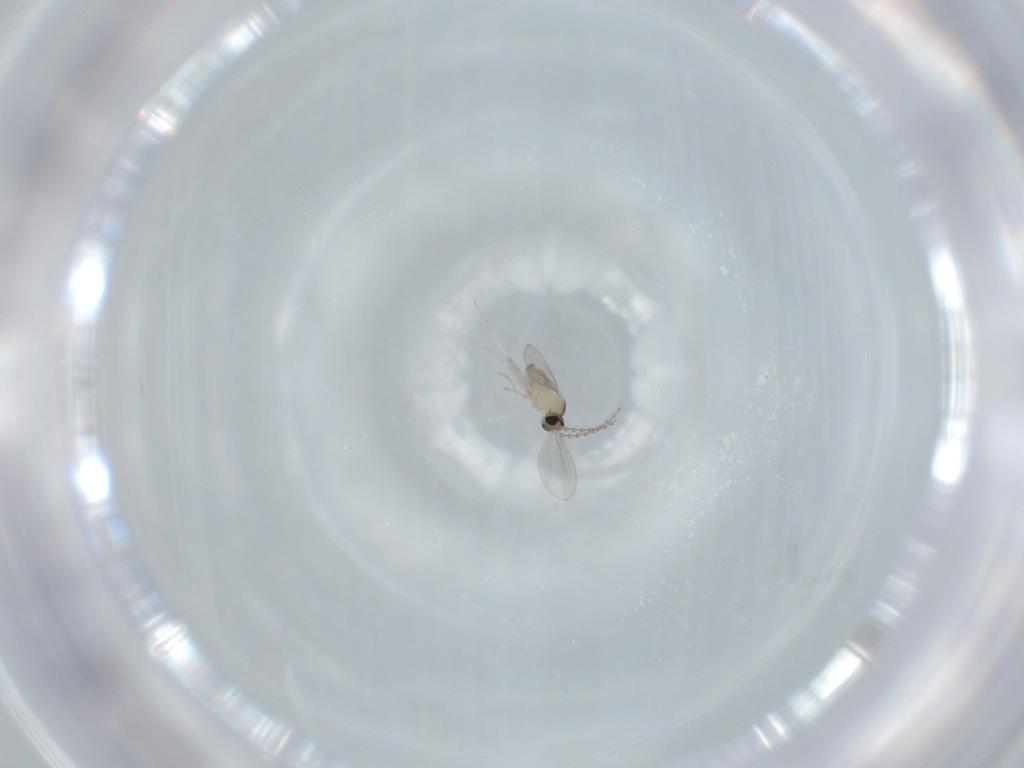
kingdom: Animalia
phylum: Arthropoda
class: Insecta
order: Diptera
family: Cecidomyiidae
